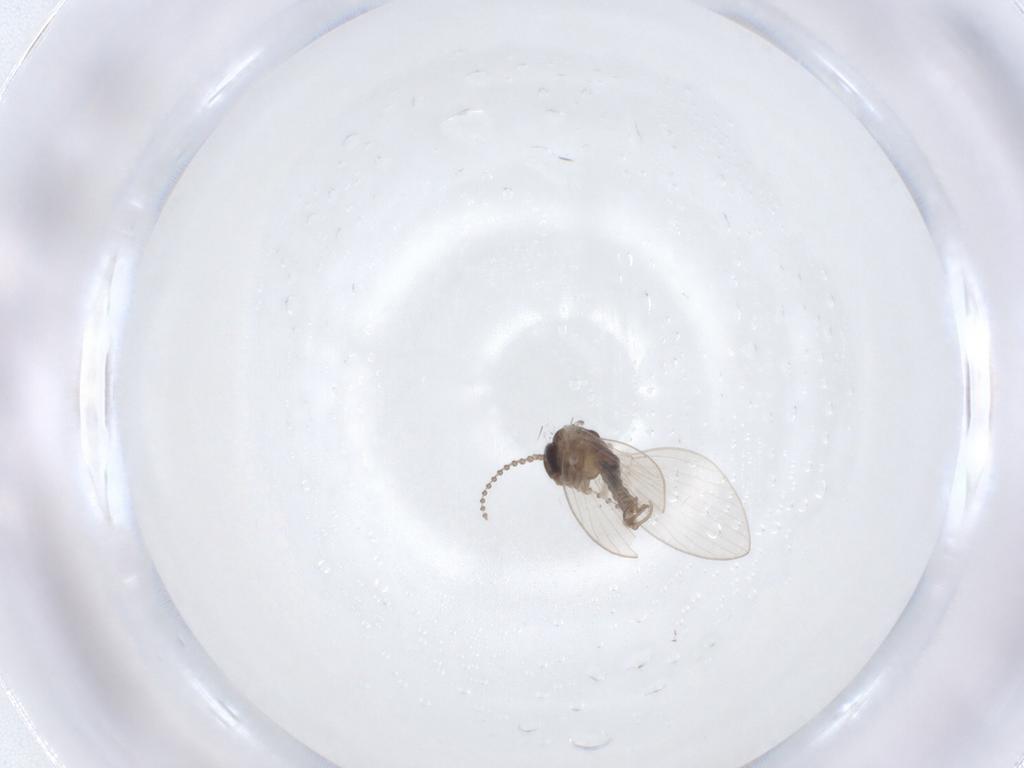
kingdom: Animalia
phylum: Arthropoda
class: Insecta
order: Diptera
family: Psychodidae
